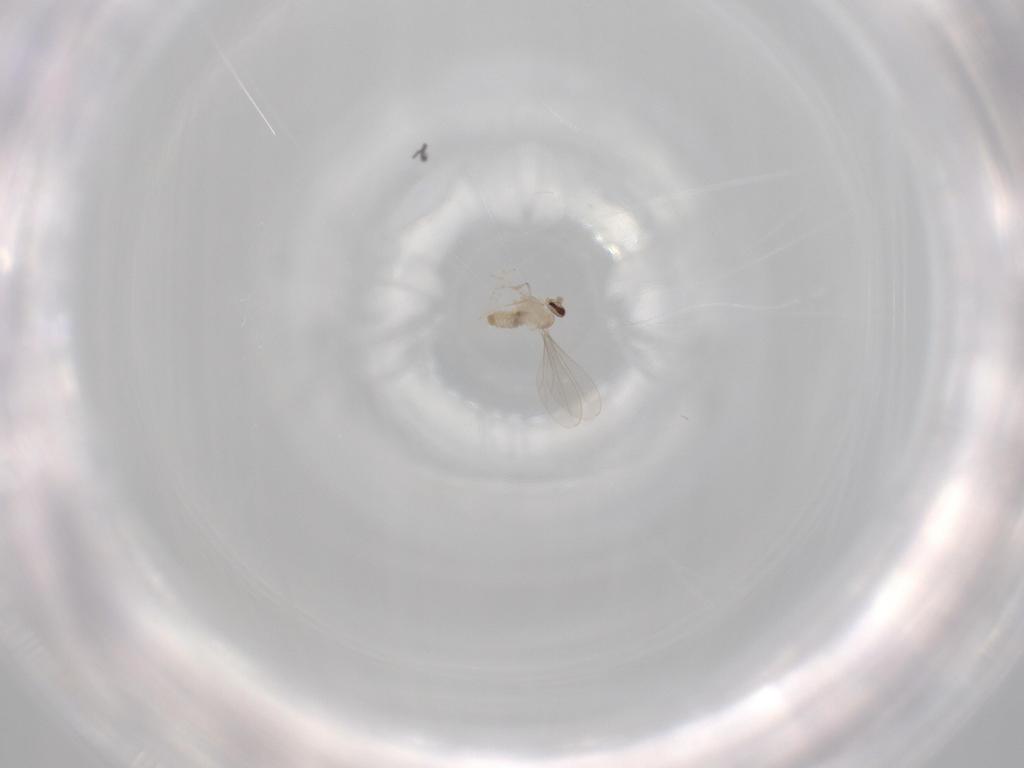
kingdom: Animalia
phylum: Arthropoda
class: Insecta
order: Diptera
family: Cecidomyiidae
